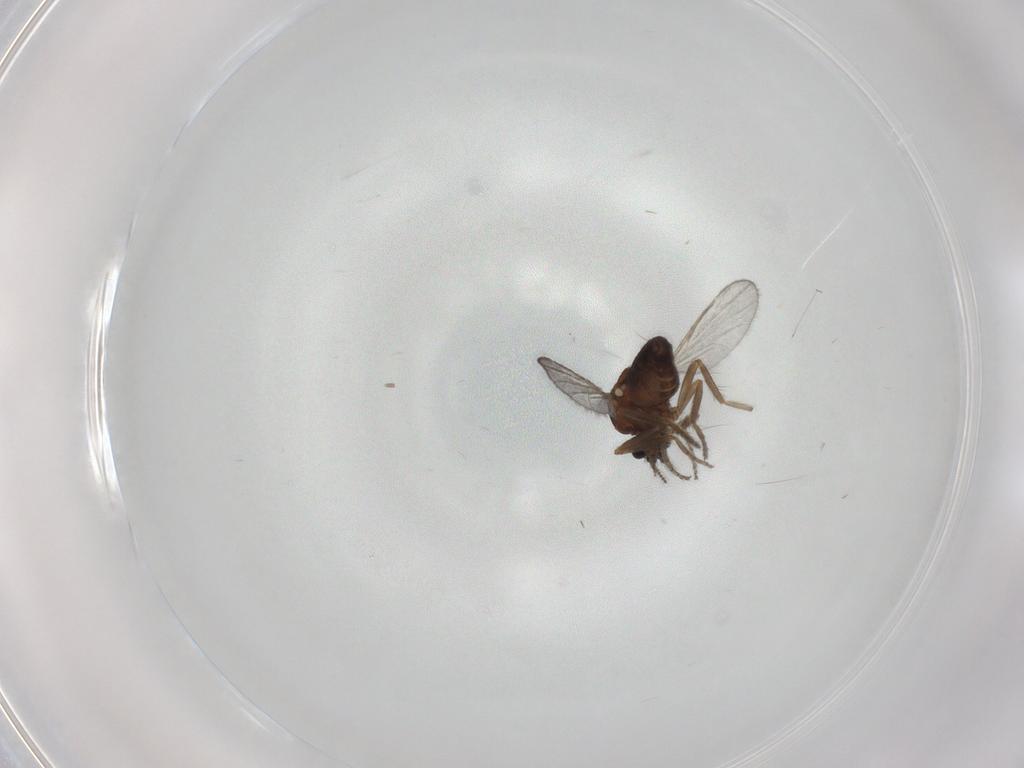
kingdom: Animalia
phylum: Arthropoda
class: Insecta
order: Diptera
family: Ceratopogonidae
